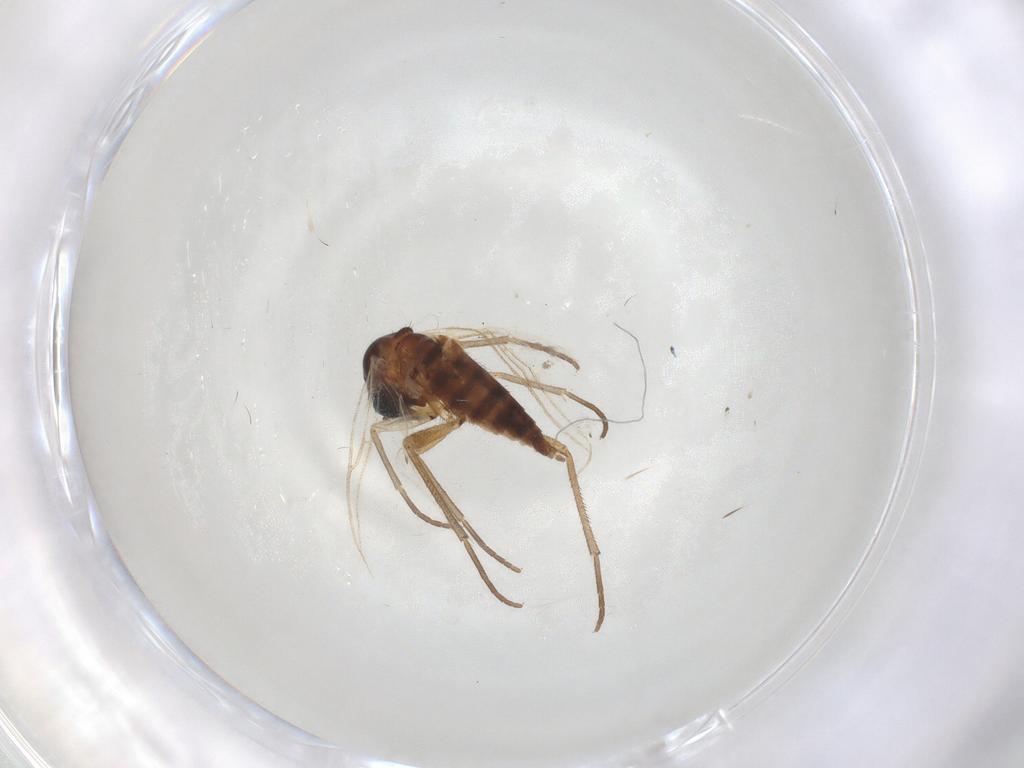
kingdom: Animalia
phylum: Arthropoda
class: Insecta
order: Diptera
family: Sciaridae
